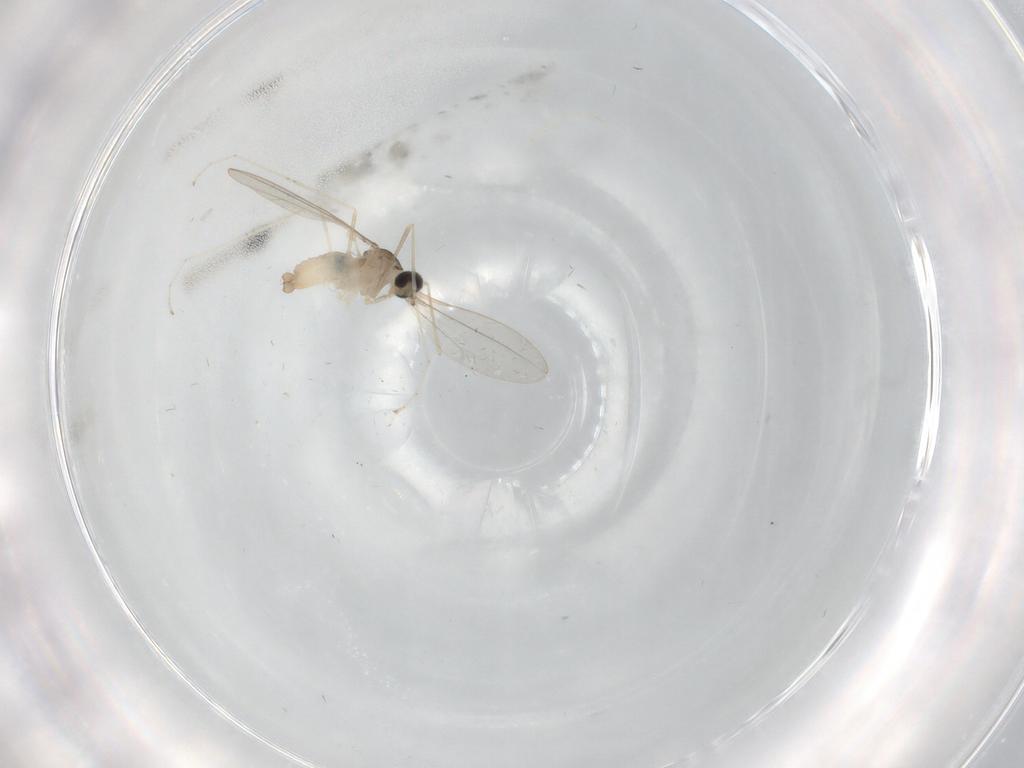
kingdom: Animalia
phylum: Arthropoda
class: Insecta
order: Diptera
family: Cecidomyiidae
